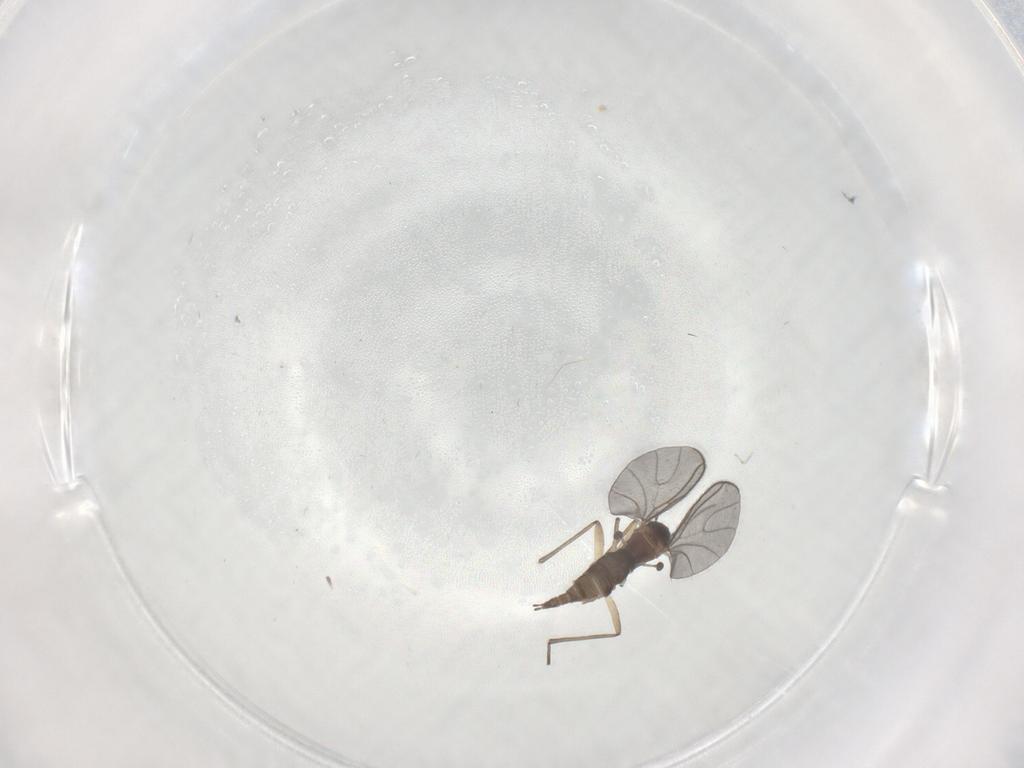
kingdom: Animalia
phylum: Arthropoda
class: Insecta
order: Diptera
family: Sciaridae
